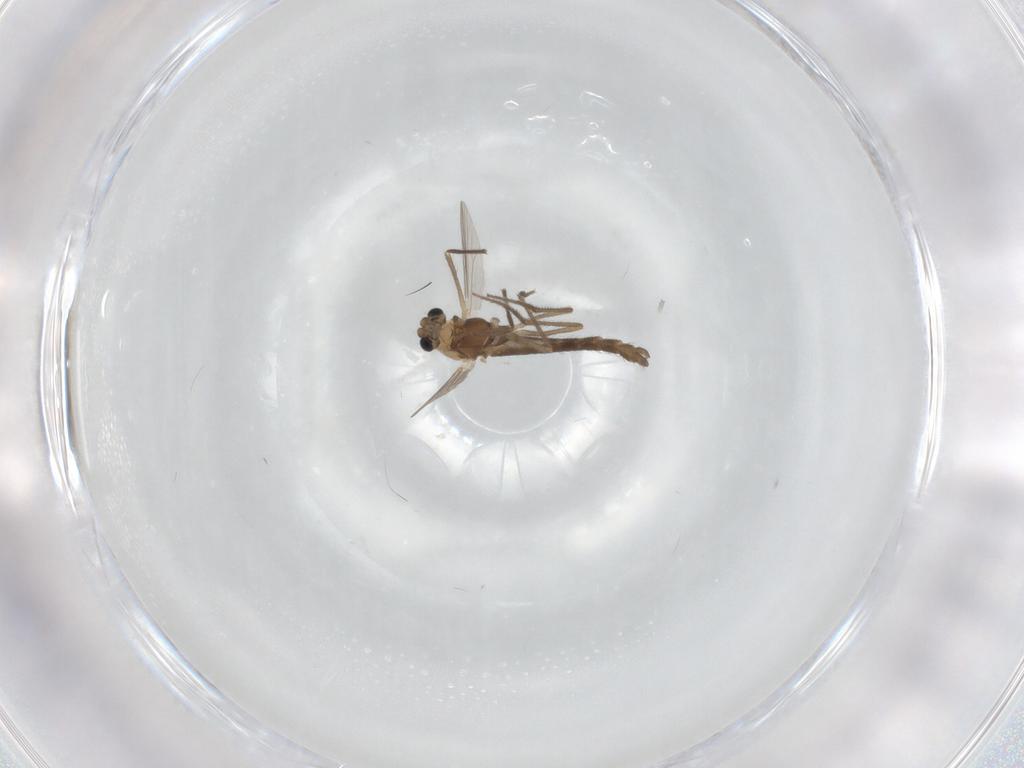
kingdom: Animalia
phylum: Arthropoda
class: Insecta
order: Diptera
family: Chironomidae
